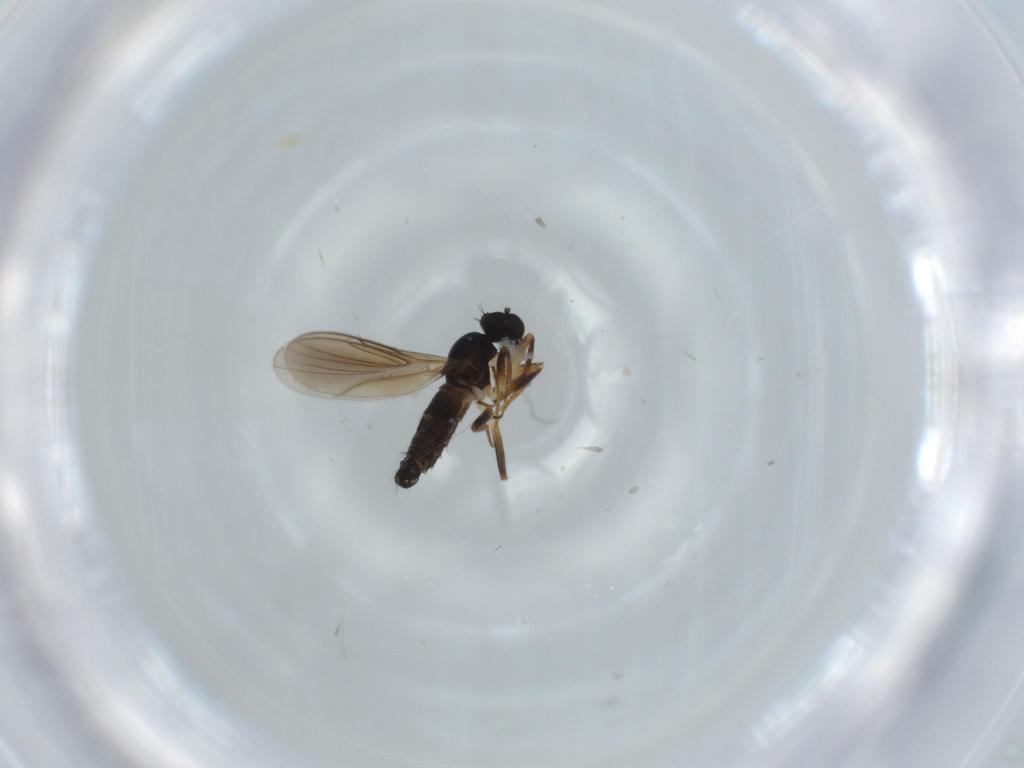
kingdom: Animalia
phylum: Arthropoda
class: Insecta
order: Diptera
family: Hybotidae
